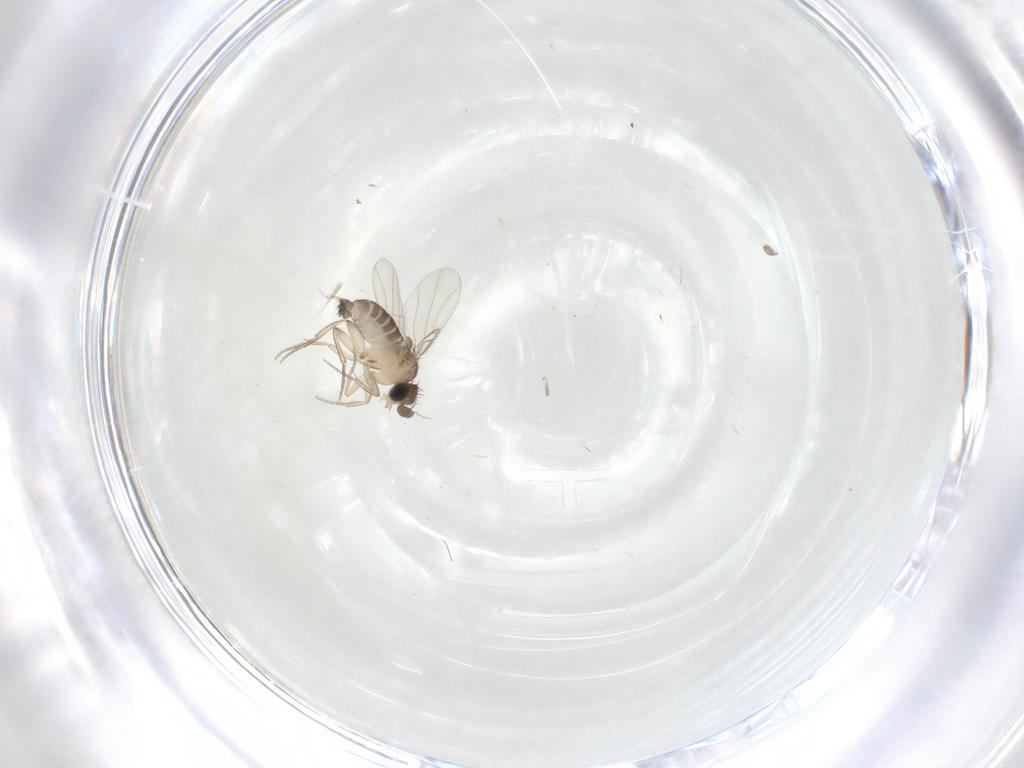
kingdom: Animalia
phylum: Arthropoda
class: Insecta
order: Diptera
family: Phoridae
